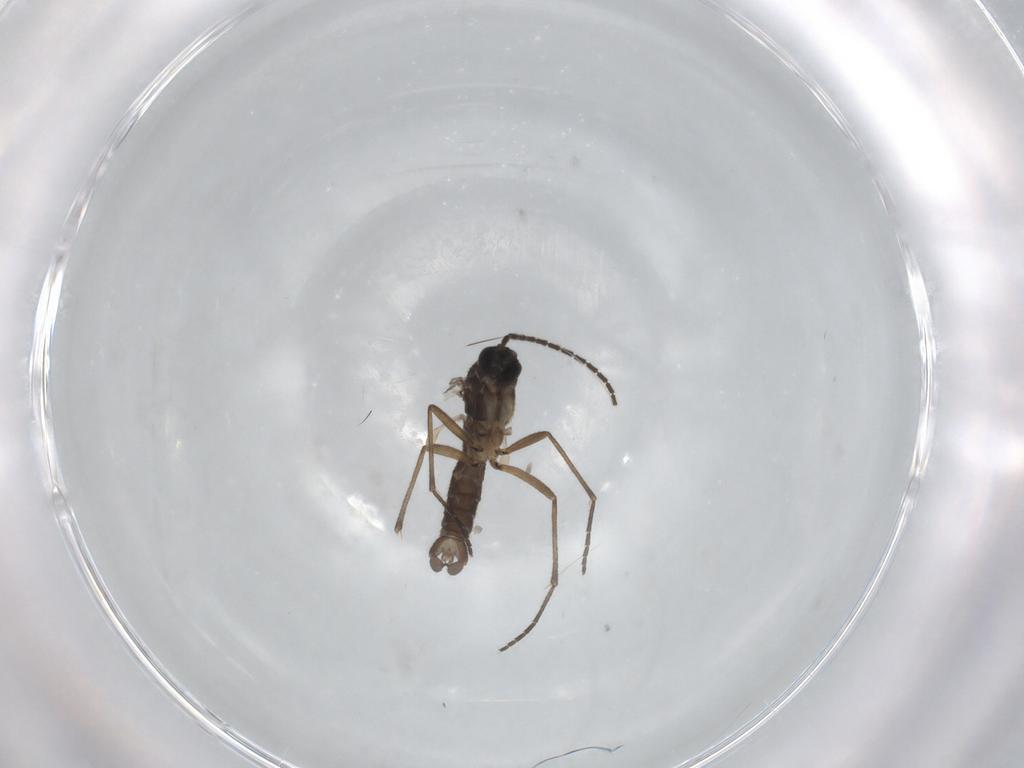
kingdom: Animalia
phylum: Arthropoda
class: Insecta
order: Diptera
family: Sciaridae
